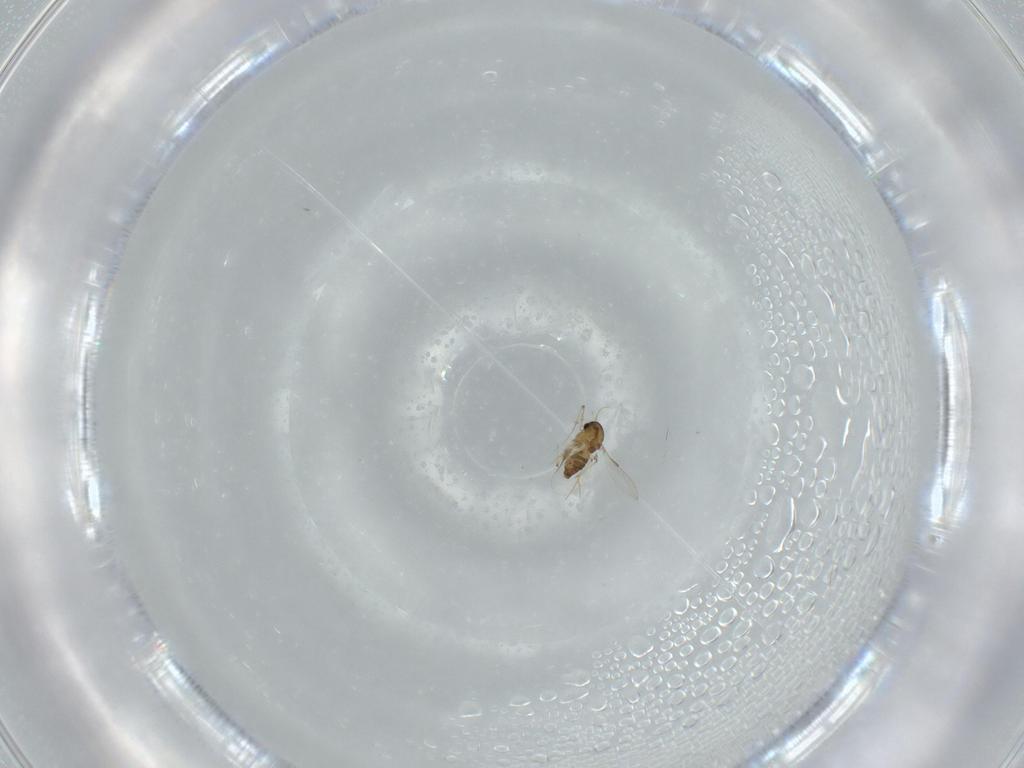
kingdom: Animalia
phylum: Arthropoda
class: Insecta
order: Diptera
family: Chironomidae
